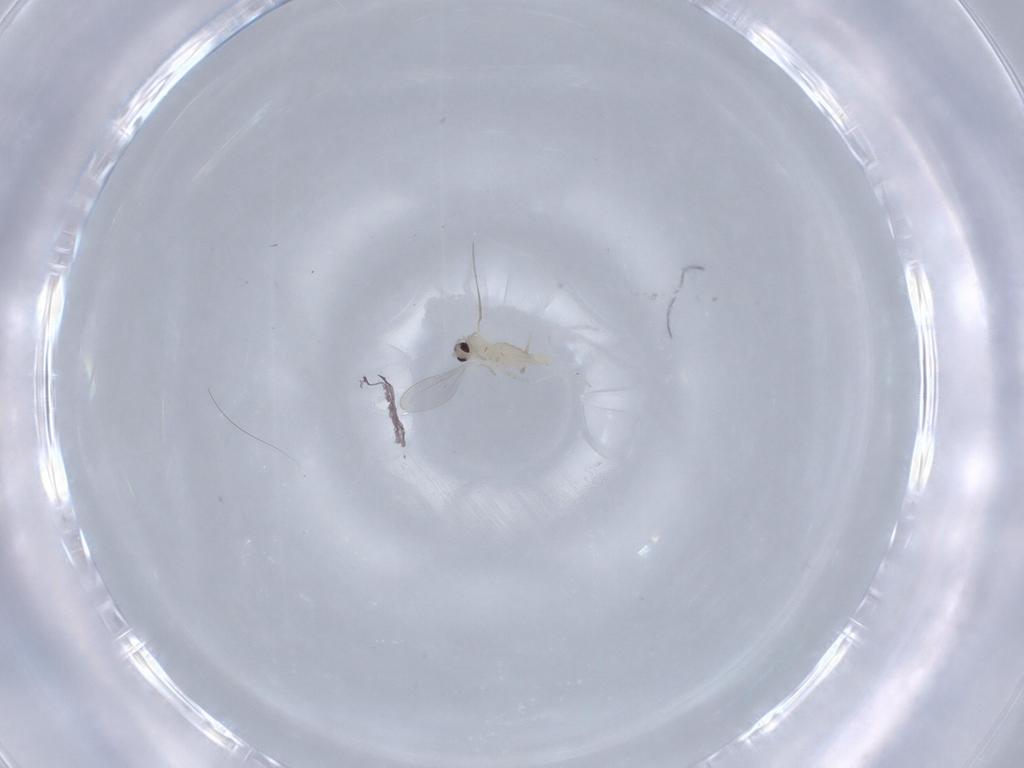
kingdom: Animalia
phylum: Arthropoda
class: Insecta
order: Diptera
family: Cecidomyiidae
